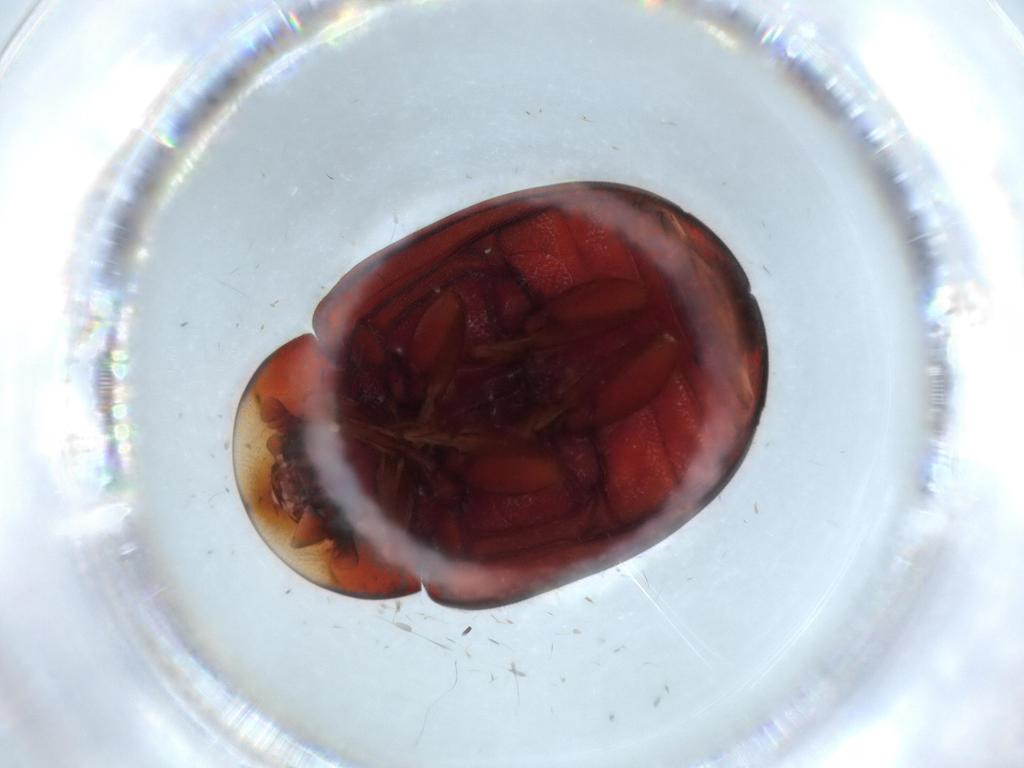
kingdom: Animalia
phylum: Arthropoda
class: Insecta
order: Coleoptera
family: Coccinellidae
